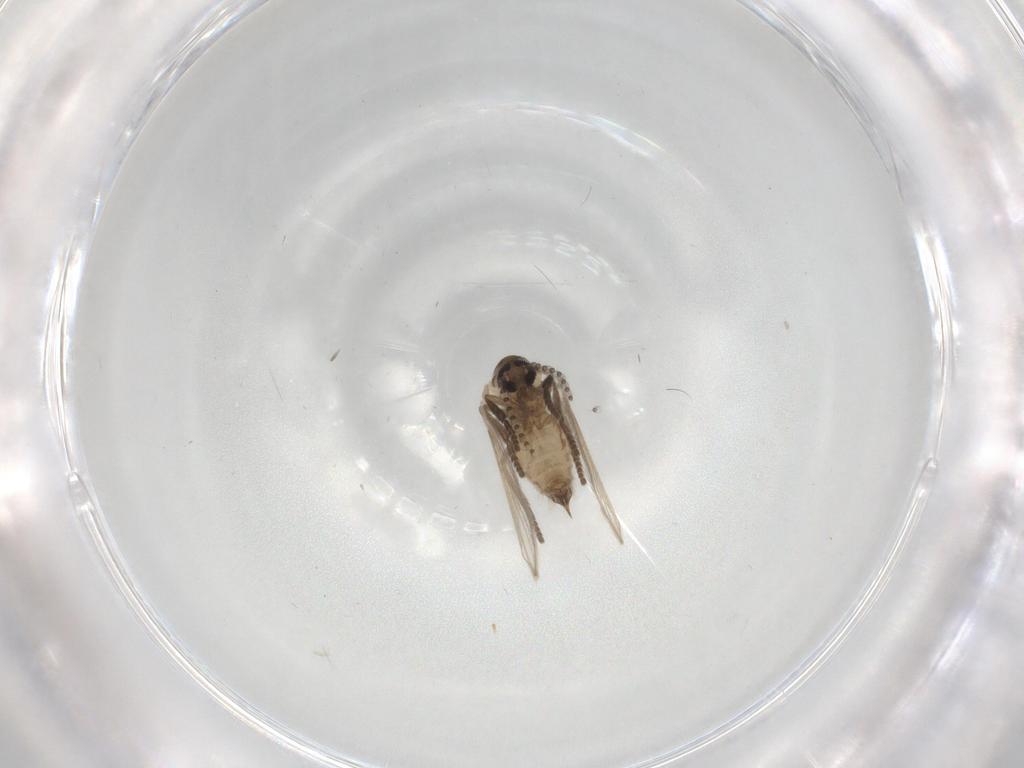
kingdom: Animalia
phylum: Arthropoda
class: Insecta
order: Diptera
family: Psychodidae
